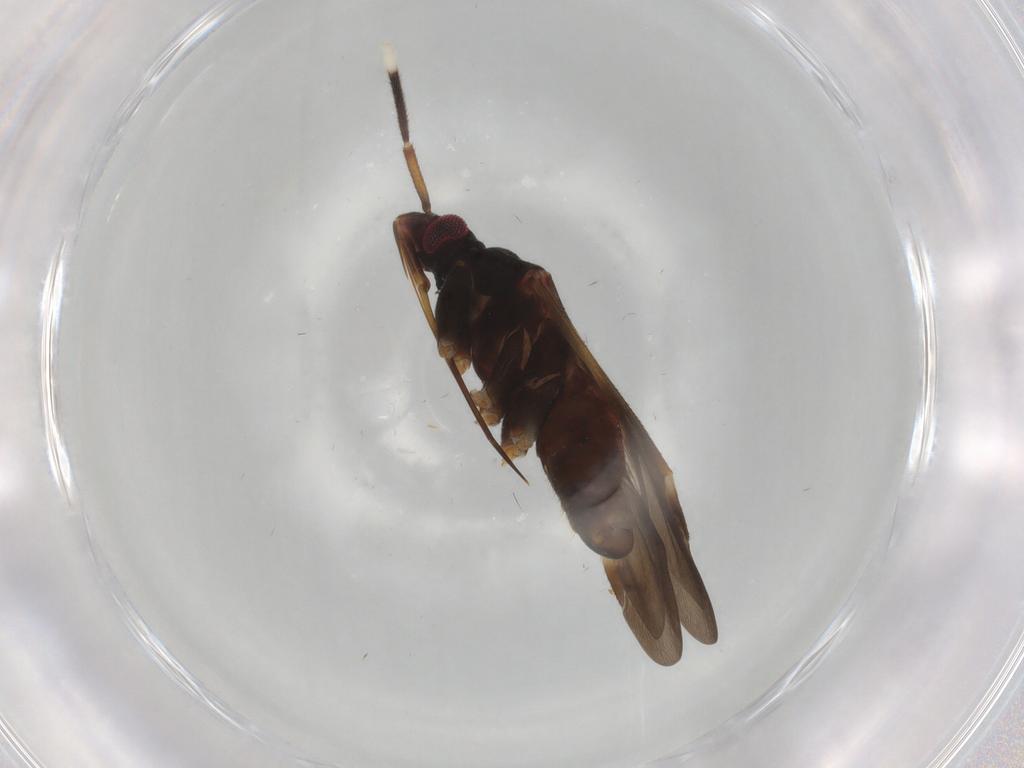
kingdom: Animalia
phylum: Arthropoda
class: Insecta
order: Hemiptera
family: Miridae
